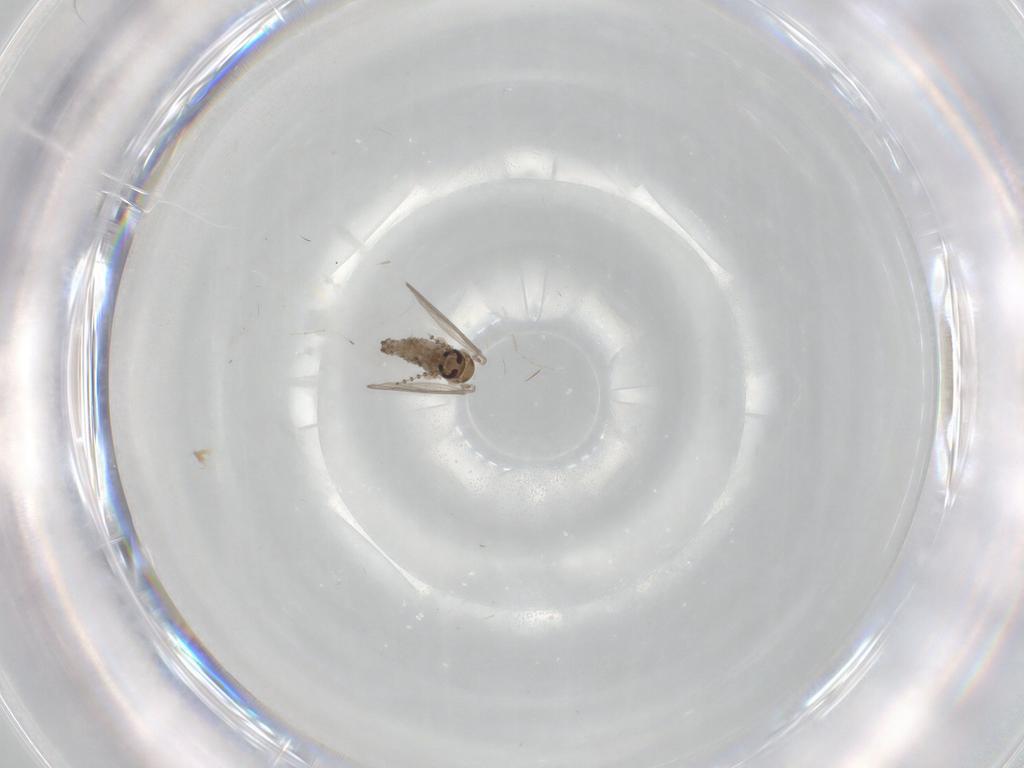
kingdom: Animalia
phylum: Arthropoda
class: Insecta
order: Diptera
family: Psychodidae
